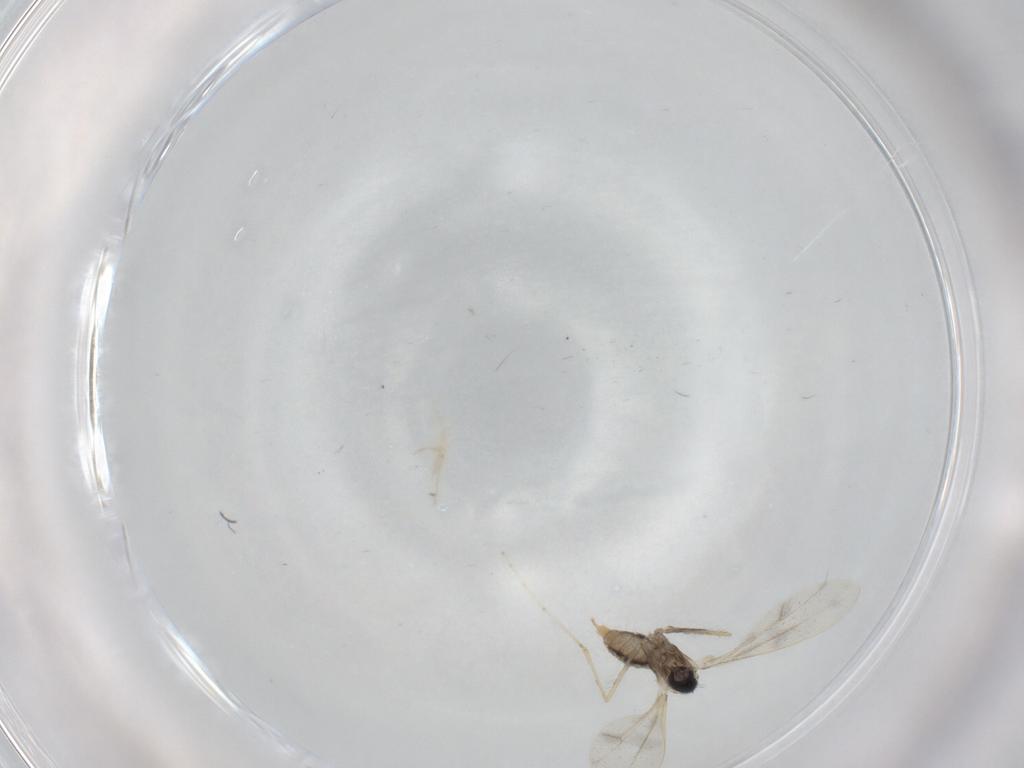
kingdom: Animalia
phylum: Arthropoda
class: Insecta
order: Diptera
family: Cecidomyiidae
